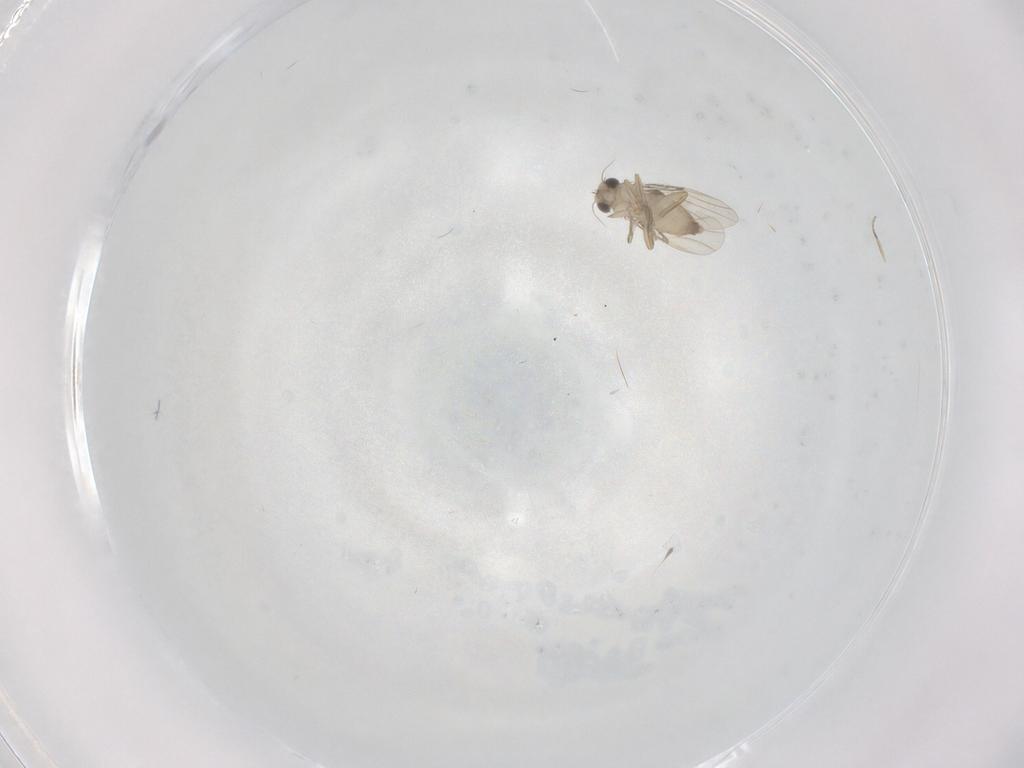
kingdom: Animalia
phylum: Arthropoda
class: Insecta
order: Diptera
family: Phoridae
